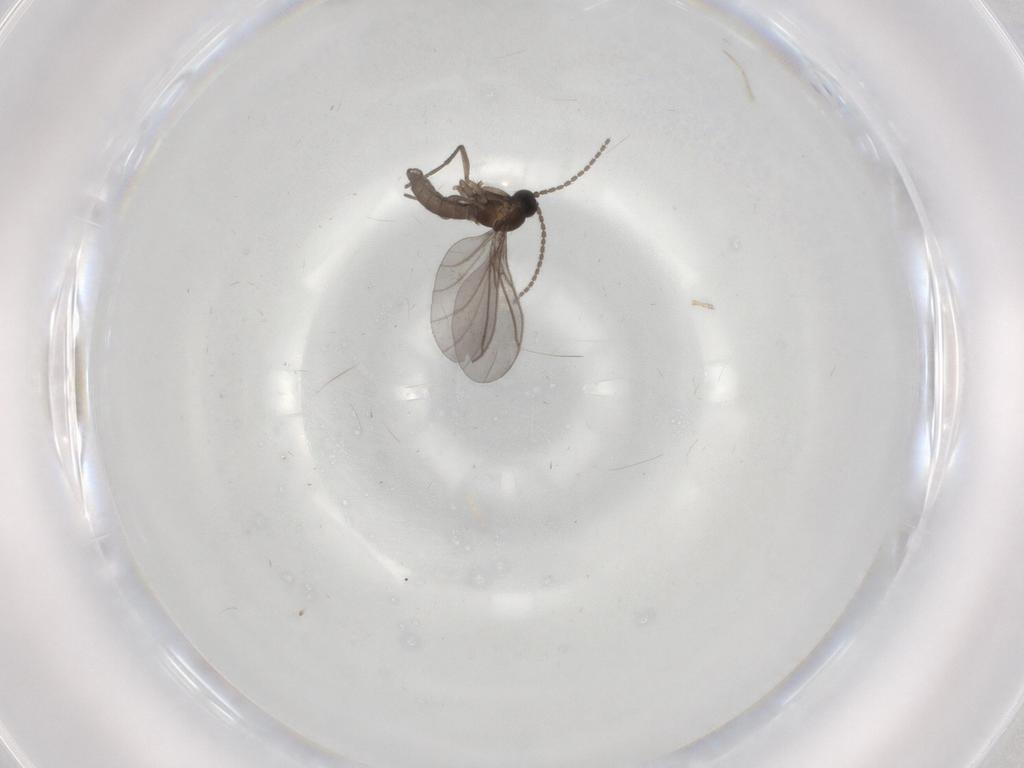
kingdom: Animalia
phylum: Arthropoda
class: Insecta
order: Diptera
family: Sciaridae
